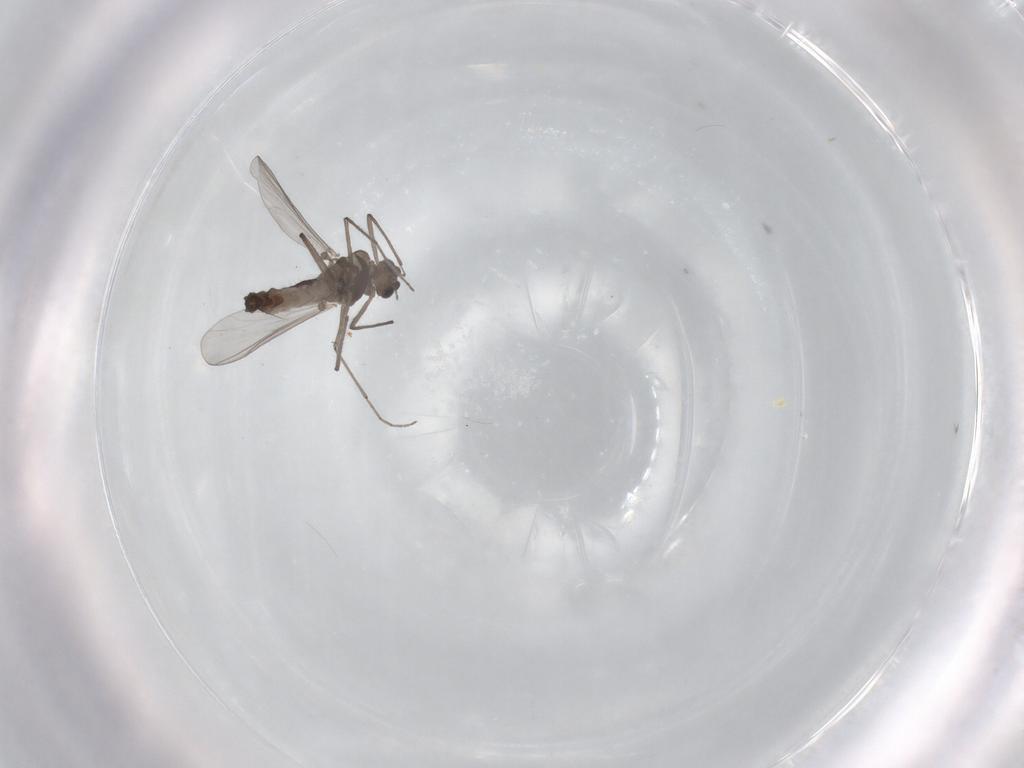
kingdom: Animalia
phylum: Arthropoda
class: Insecta
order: Diptera
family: Chironomidae
